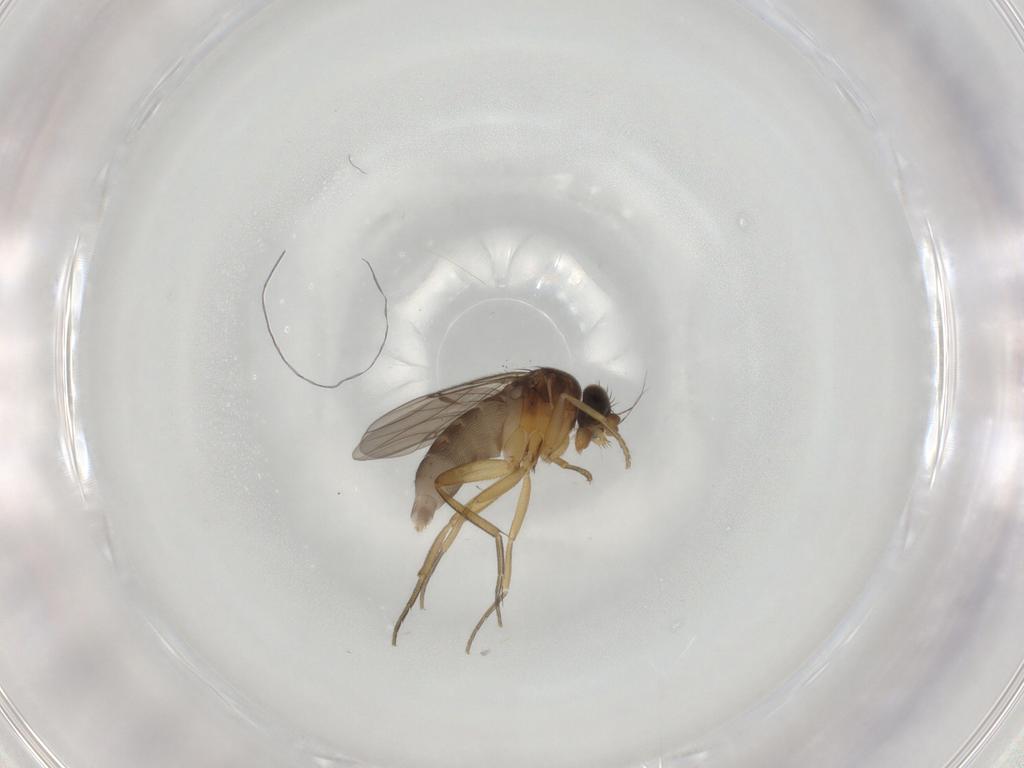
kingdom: Animalia
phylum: Arthropoda
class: Insecta
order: Diptera
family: Phoridae
